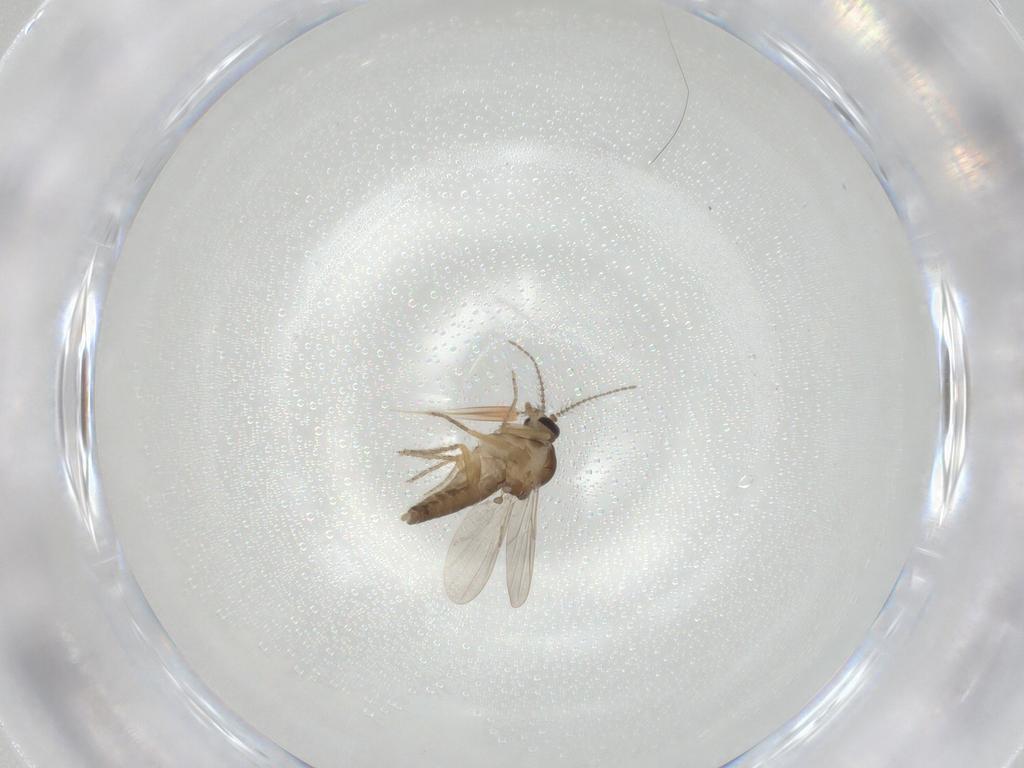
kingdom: Animalia
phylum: Arthropoda
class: Insecta
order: Diptera
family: Ceratopogonidae
